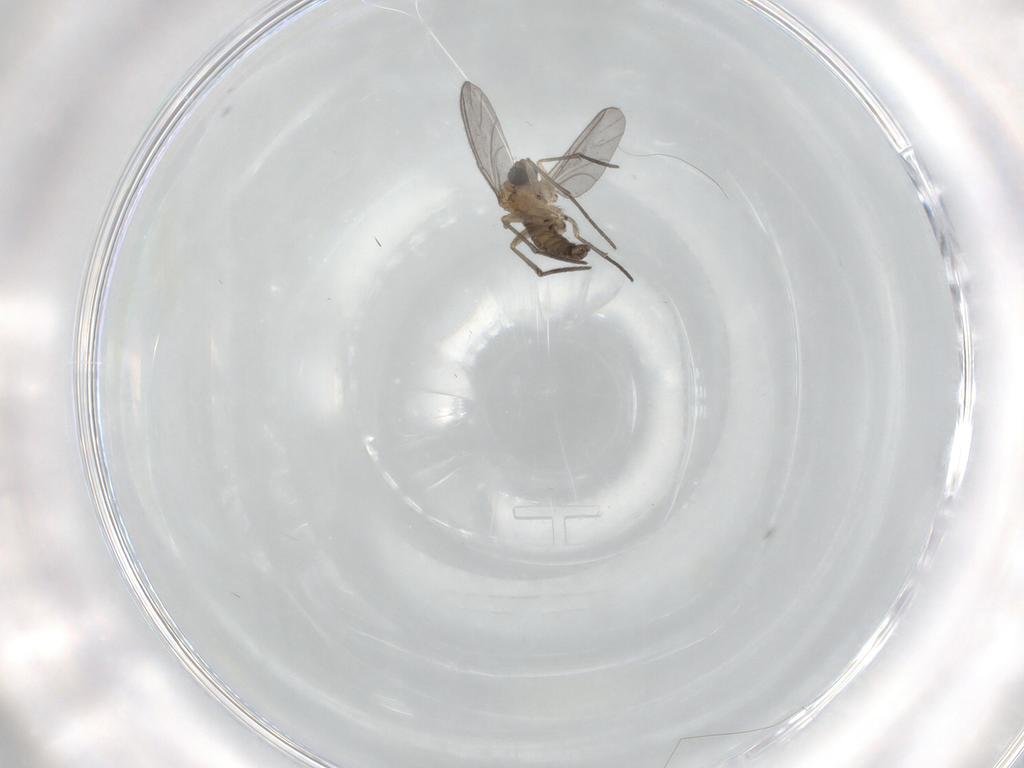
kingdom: Animalia
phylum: Arthropoda
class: Insecta
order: Diptera
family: Sciaridae
